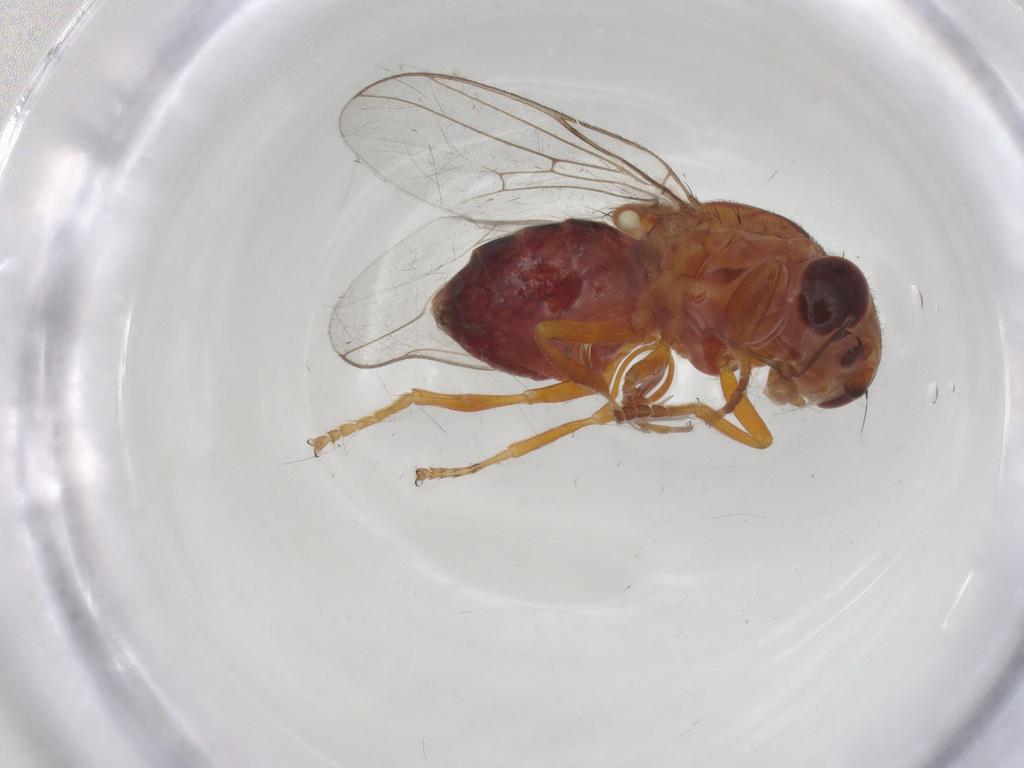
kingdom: Animalia
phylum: Arthropoda
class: Insecta
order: Diptera
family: Chloropidae
